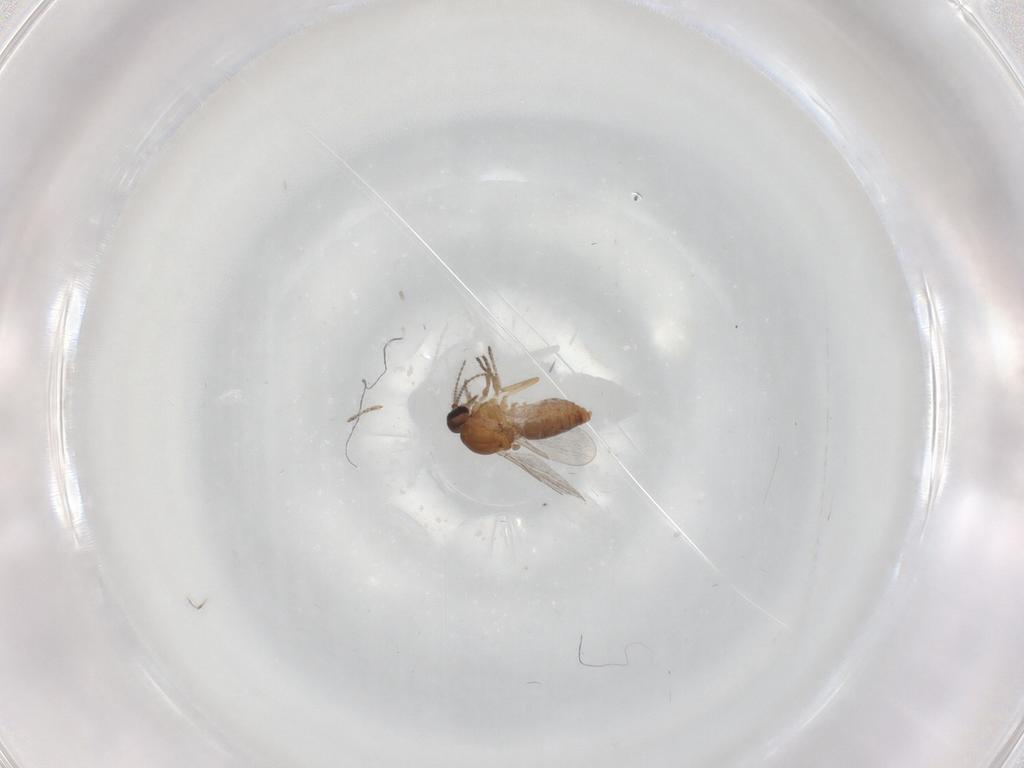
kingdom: Animalia
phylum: Arthropoda
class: Insecta
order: Diptera
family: Ceratopogonidae
